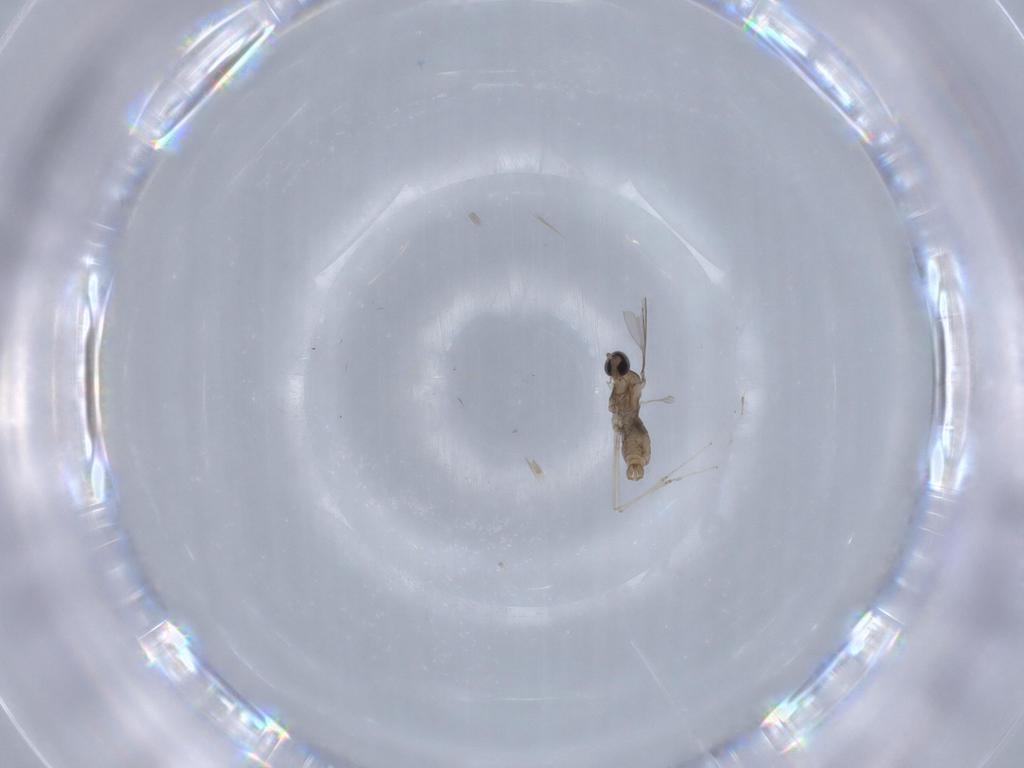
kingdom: Animalia
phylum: Arthropoda
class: Insecta
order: Diptera
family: Cecidomyiidae
